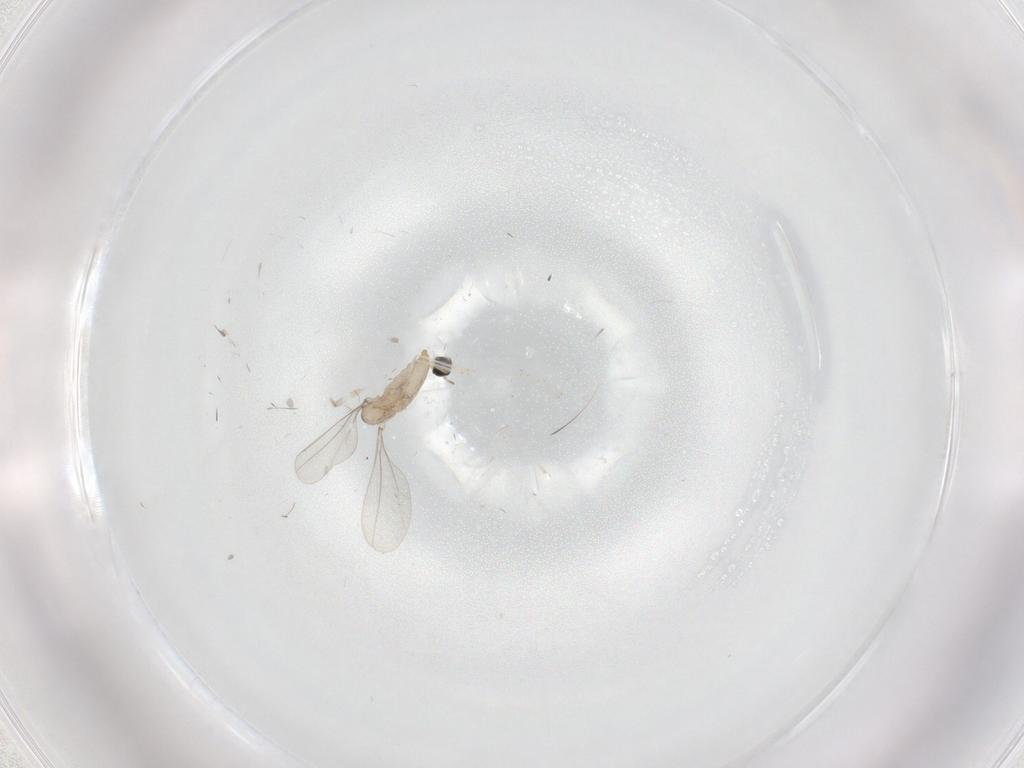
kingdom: Animalia
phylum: Arthropoda
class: Insecta
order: Diptera
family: Cecidomyiidae
